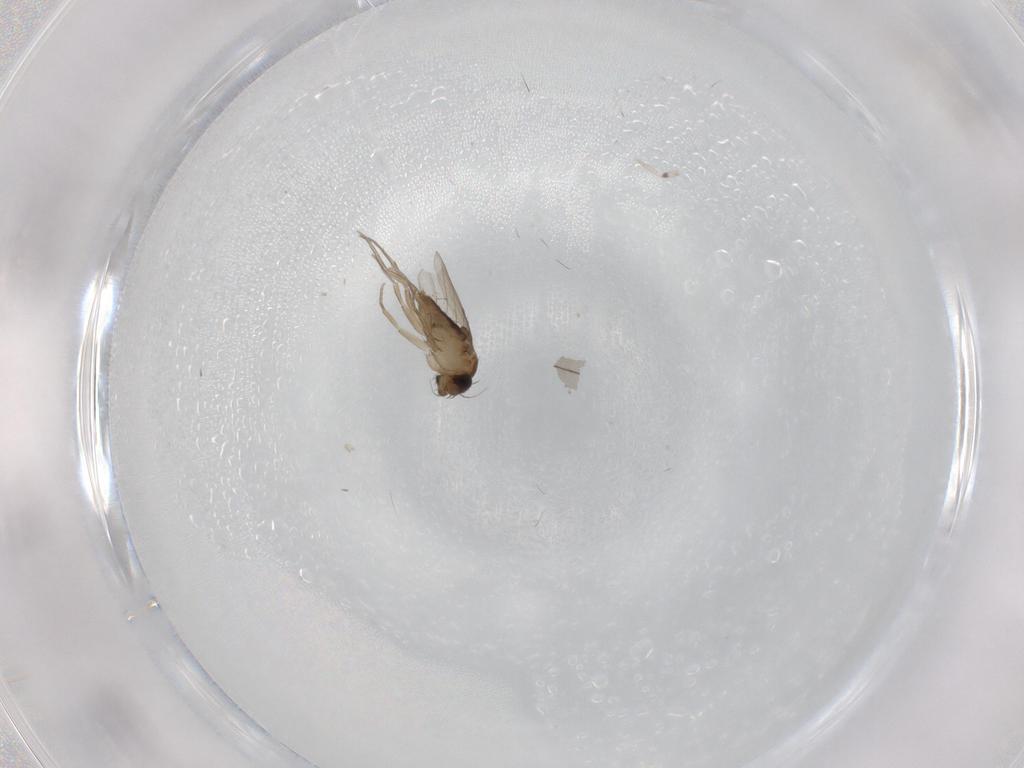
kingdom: Animalia
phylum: Arthropoda
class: Insecta
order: Diptera
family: Phoridae
